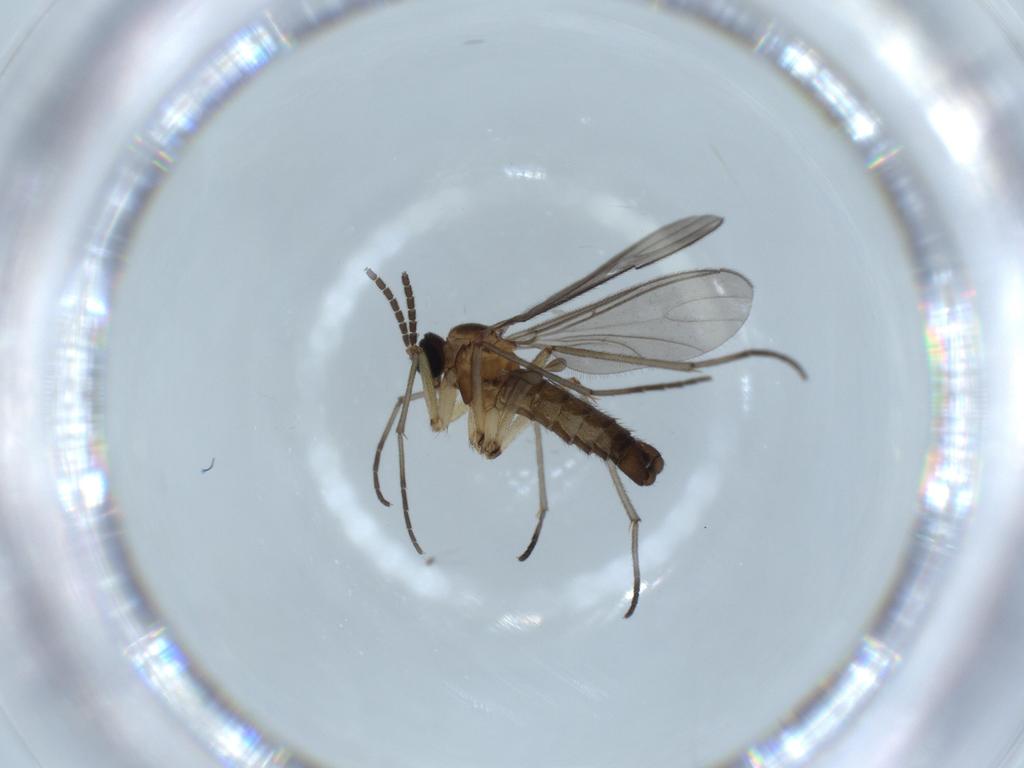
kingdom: Animalia
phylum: Arthropoda
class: Insecta
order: Diptera
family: Sciaridae
